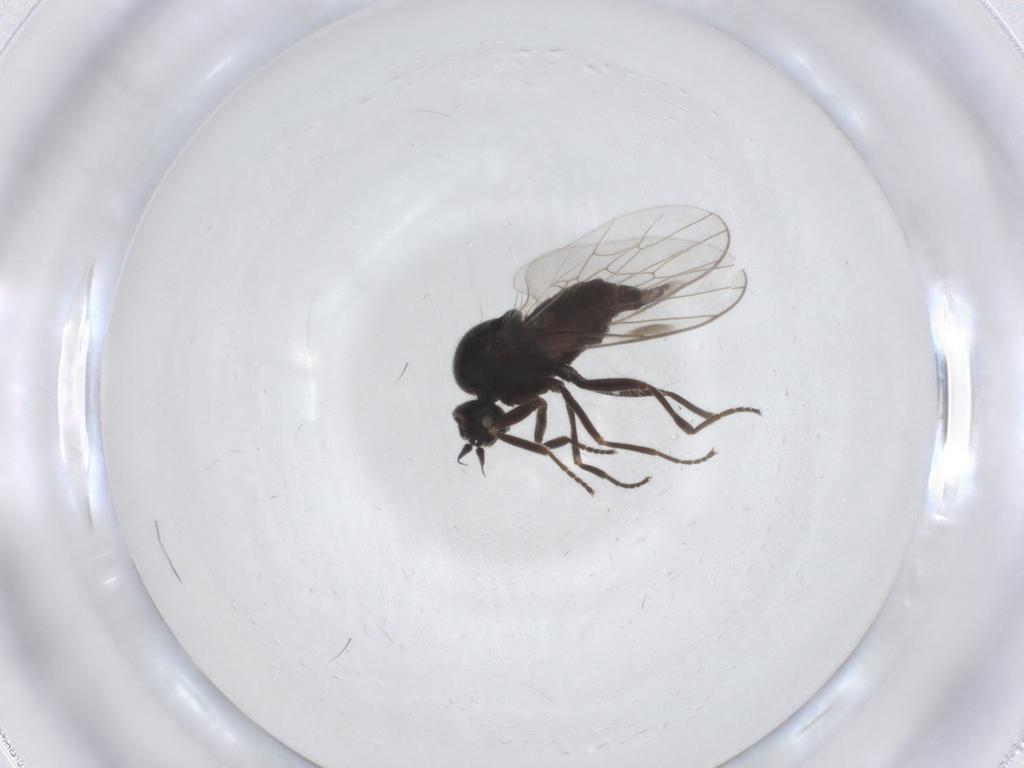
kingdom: Animalia
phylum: Arthropoda
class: Insecta
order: Diptera
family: Hybotidae
